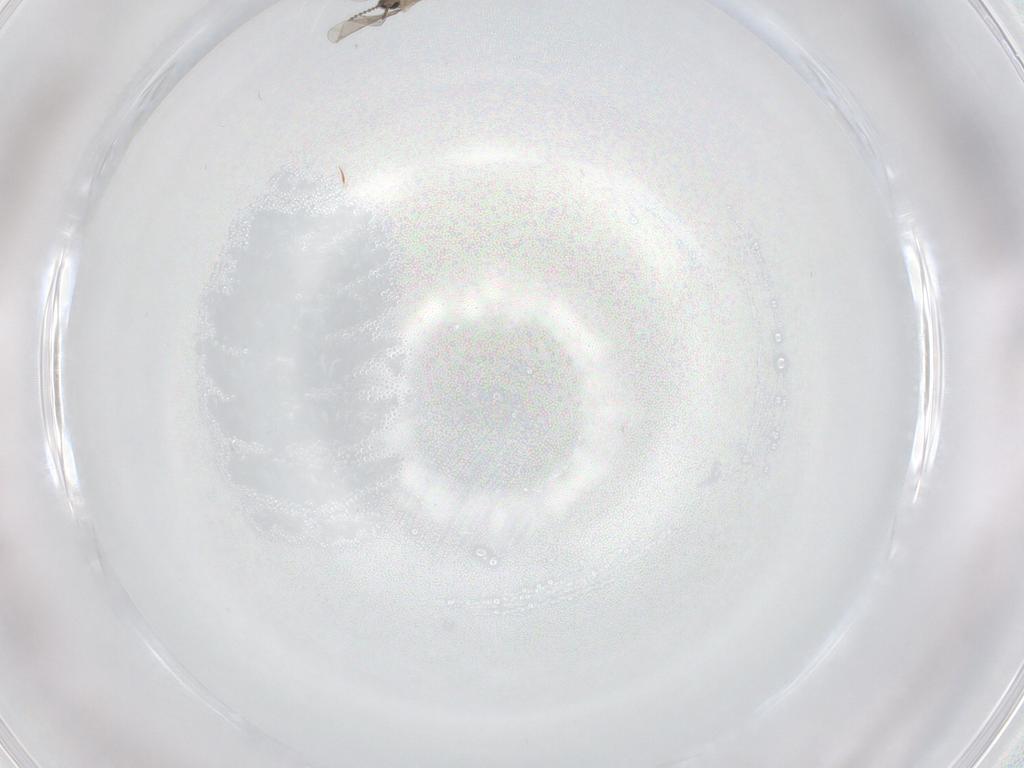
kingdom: Animalia
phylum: Arthropoda
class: Insecta
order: Diptera
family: Cecidomyiidae
